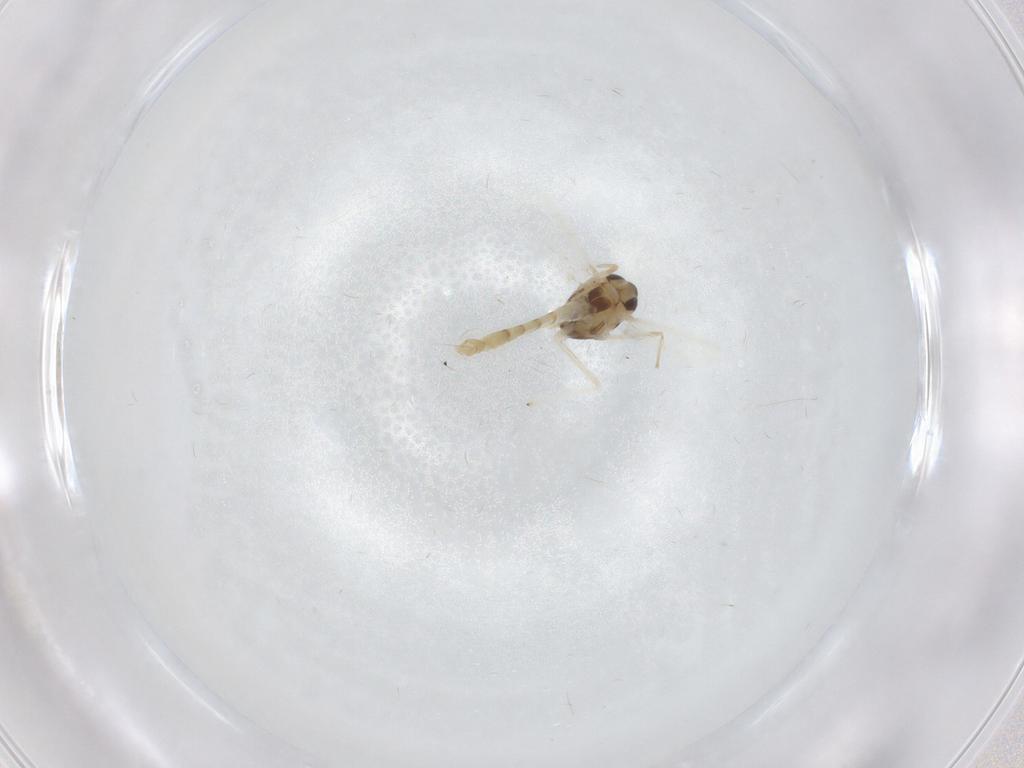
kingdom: Animalia
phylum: Arthropoda
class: Insecta
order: Diptera
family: Chironomidae
